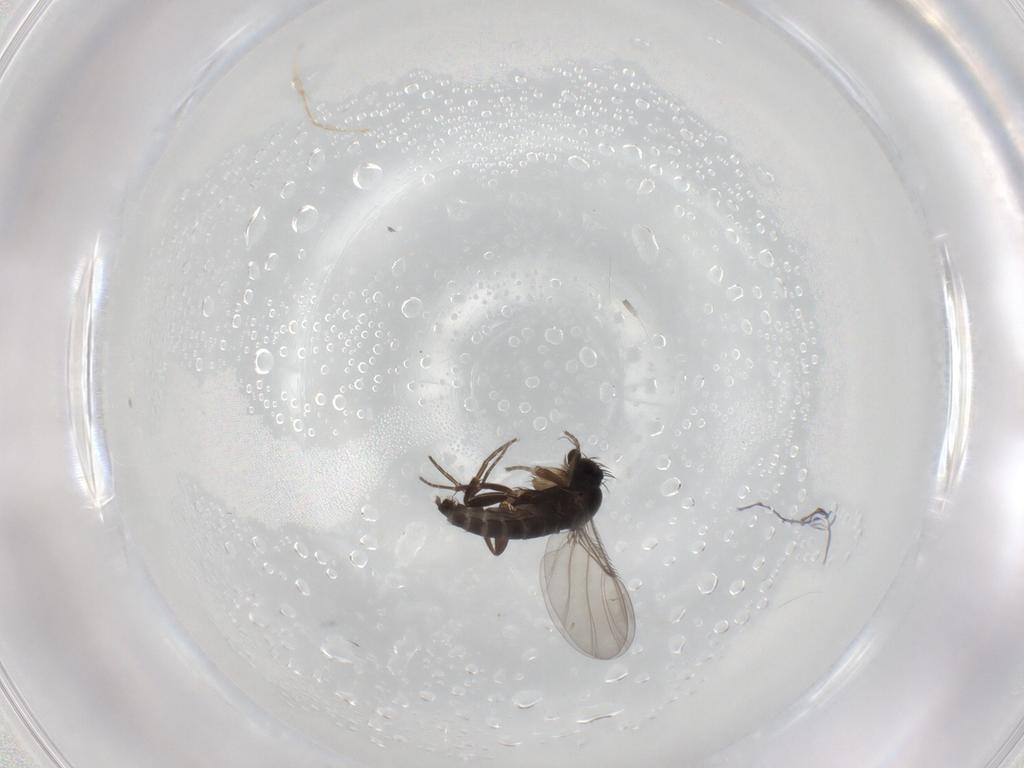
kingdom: Animalia
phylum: Arthropoda
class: Insecta
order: Diptera
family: Phoridae
